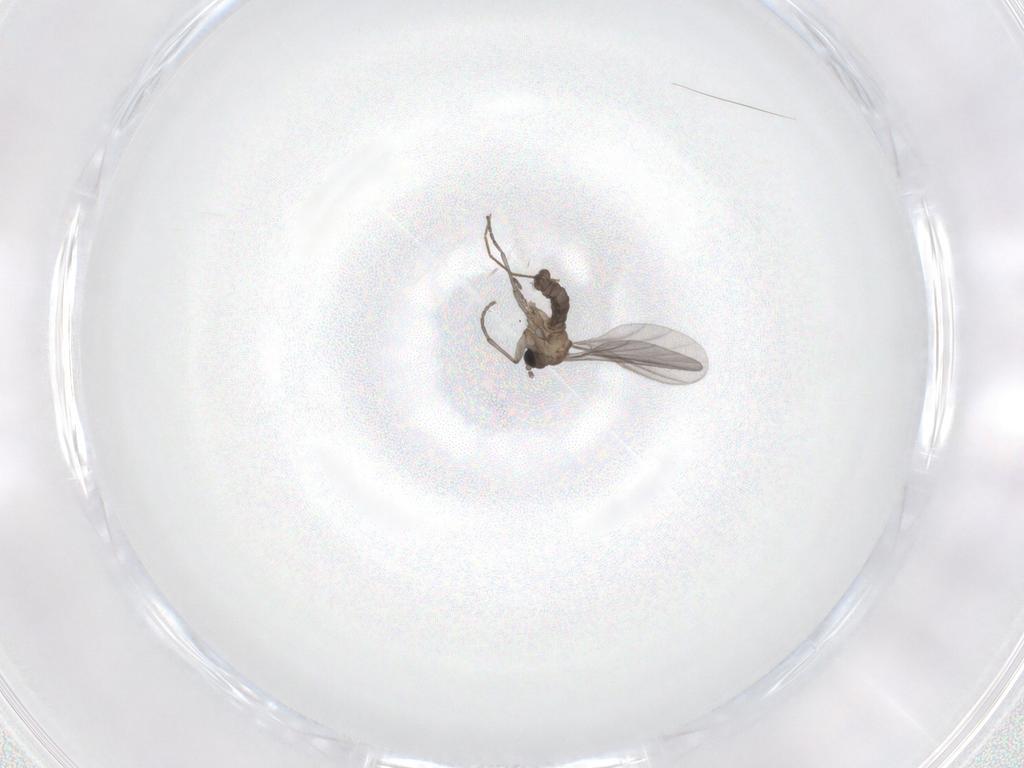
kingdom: Animalia
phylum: Arthropoda
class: Insecta
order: Diptera
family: Sciaridae
